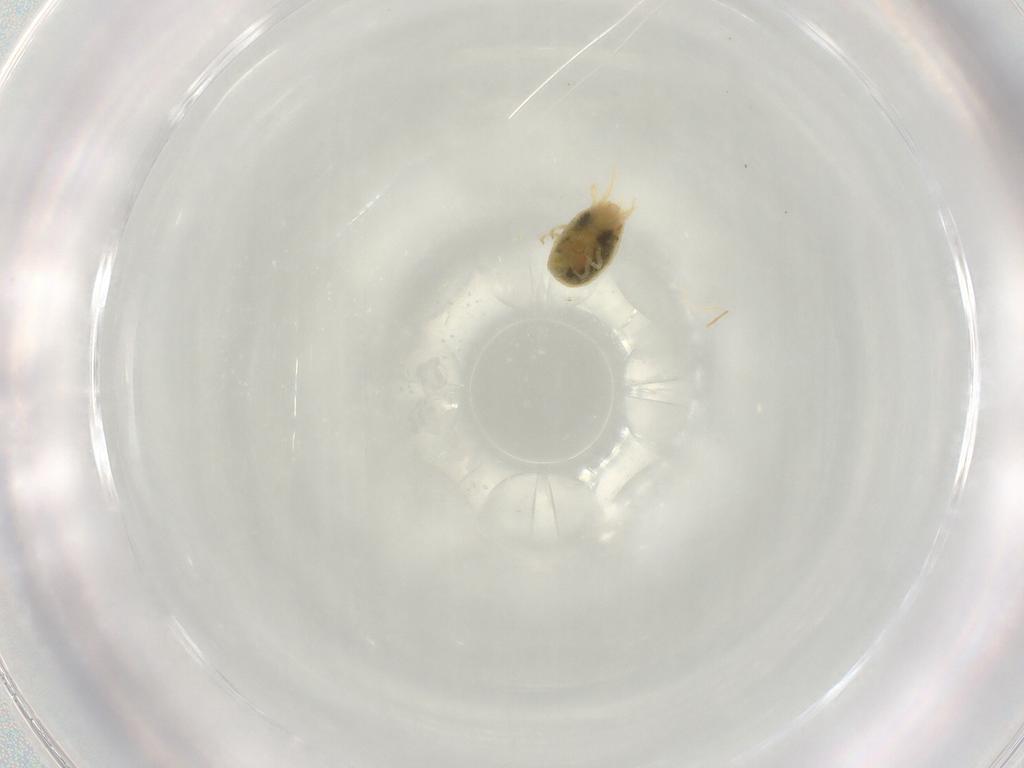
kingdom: Animalia
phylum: Arthropoda
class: Arachnida
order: Trombidiformes
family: Tetranychidae
